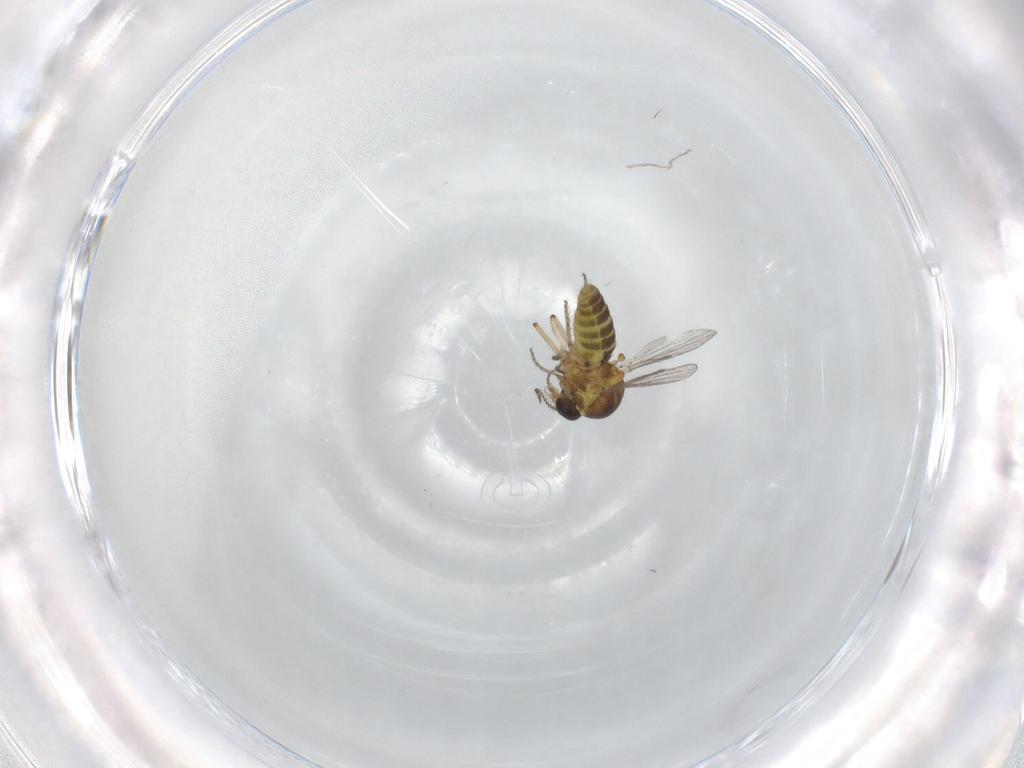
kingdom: Animalia
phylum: Arthropoda
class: Insecta
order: Diptera
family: Ceratopogonidae
